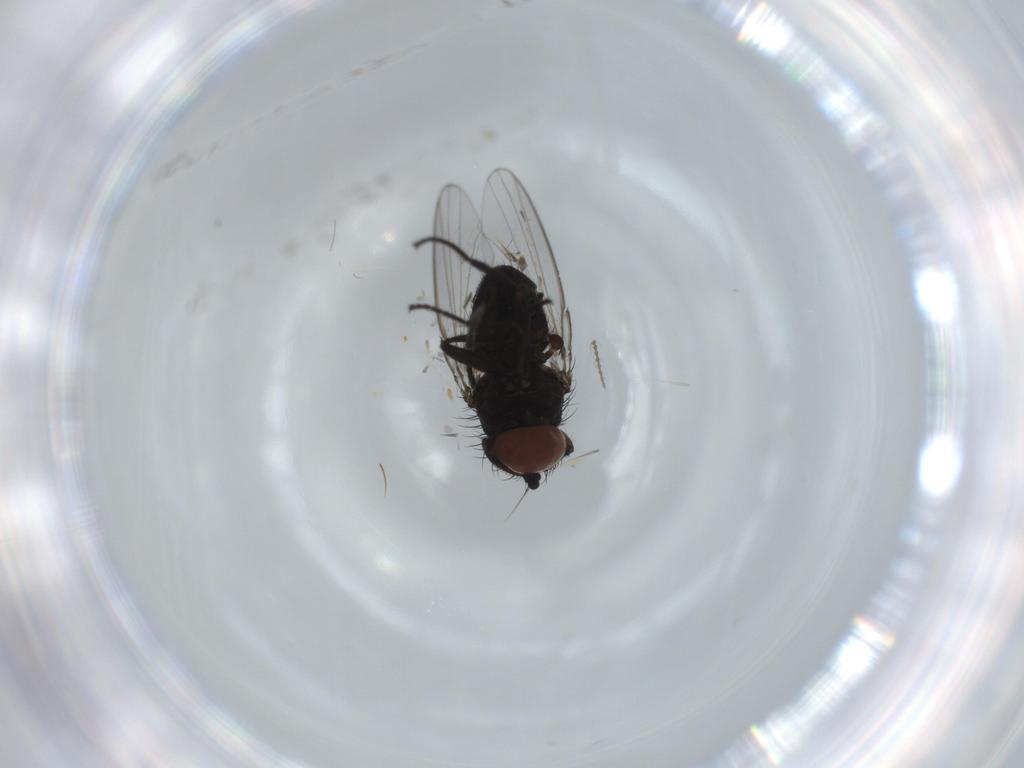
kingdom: Animalia
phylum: Arthropoda
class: Insecta
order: Diptera
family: Milichiidae
